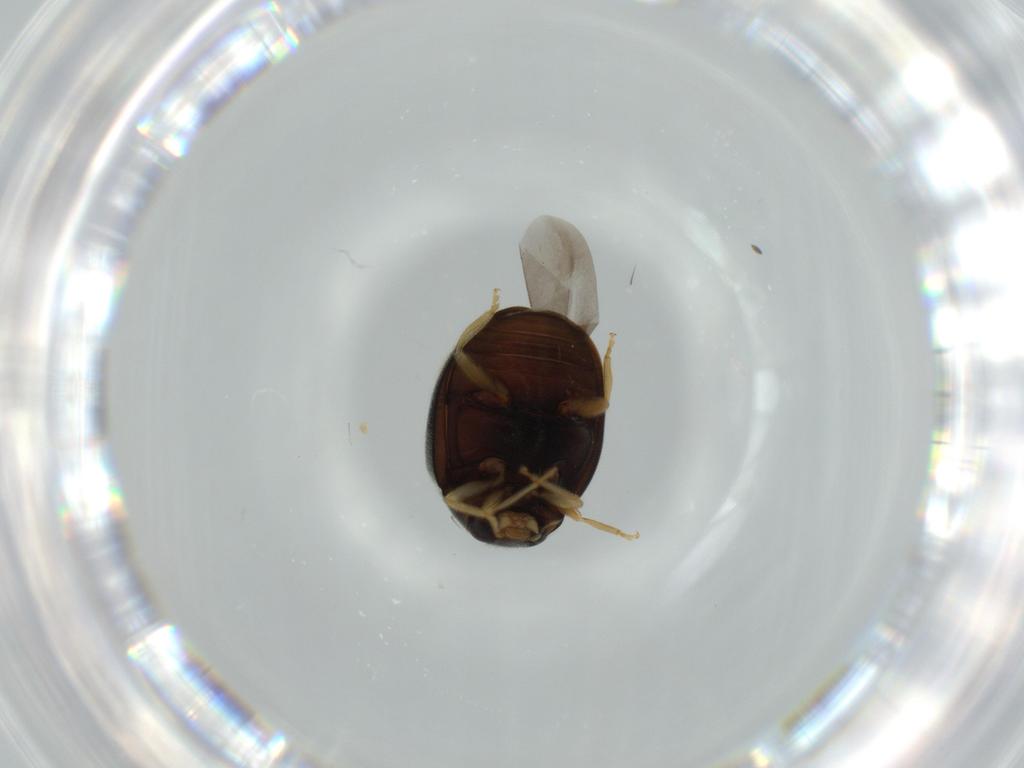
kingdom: Animalia
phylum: Arthropoda
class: Insecta
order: Coleoptera
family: Coccinellidae
